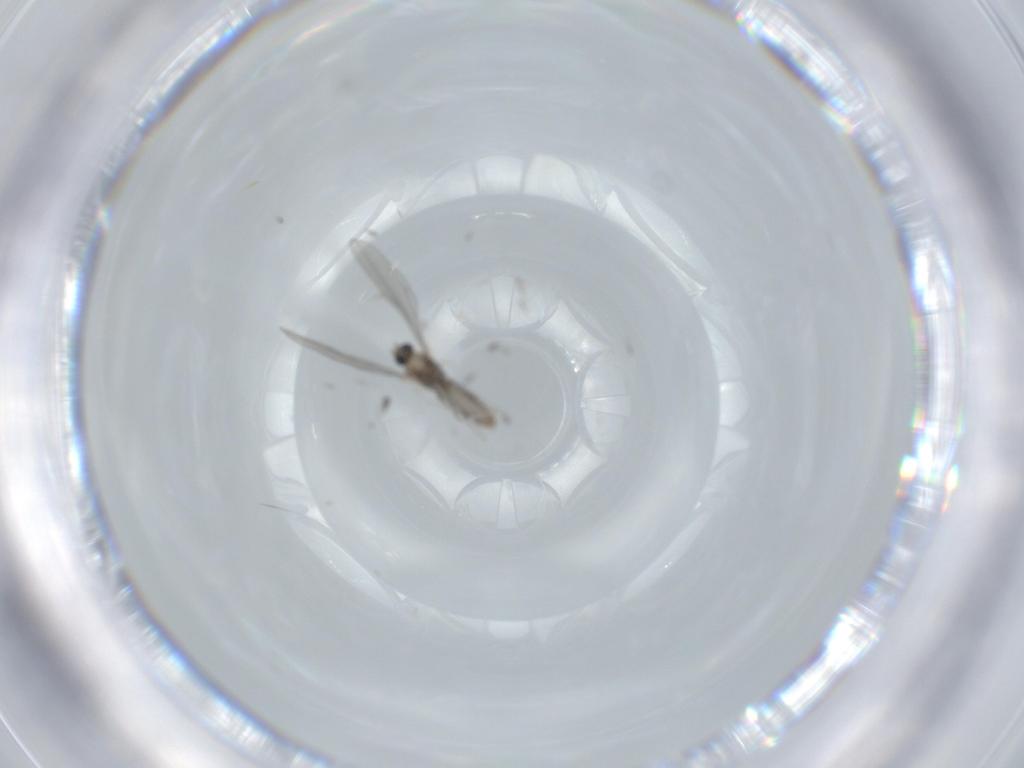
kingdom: Animalia
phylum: Arthropoda
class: Insecta
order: Diptera
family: Cecidomyiidae
